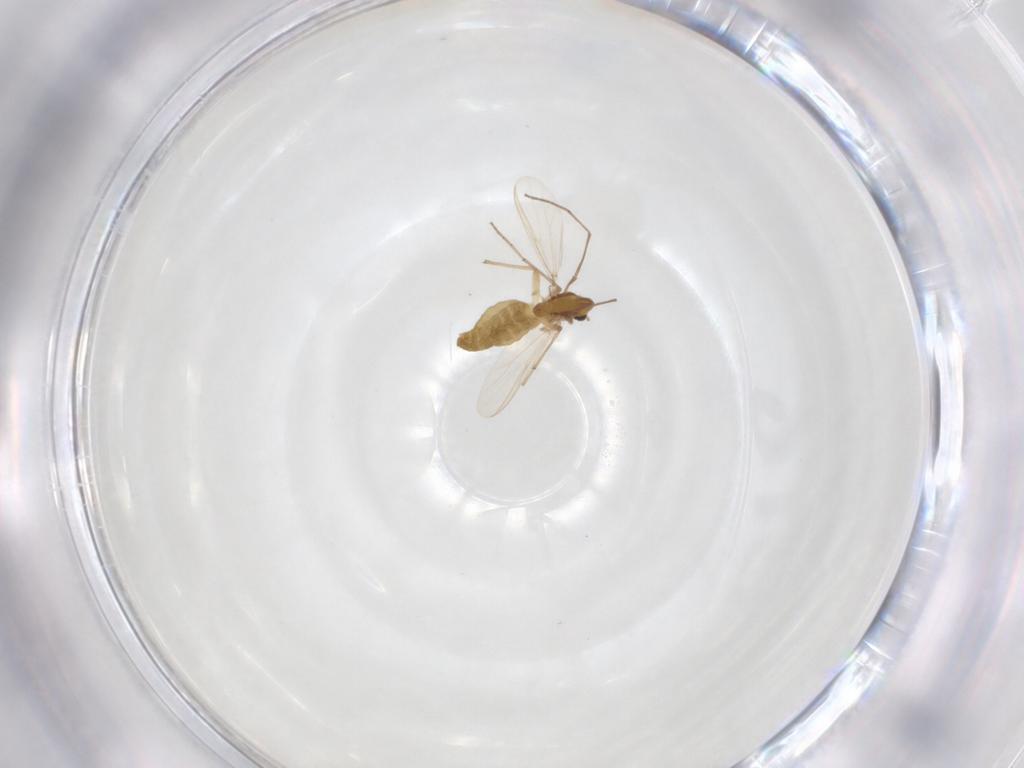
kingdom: Animalia
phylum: Arthropoda
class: Insecta
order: Diptera
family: Chironomidae
